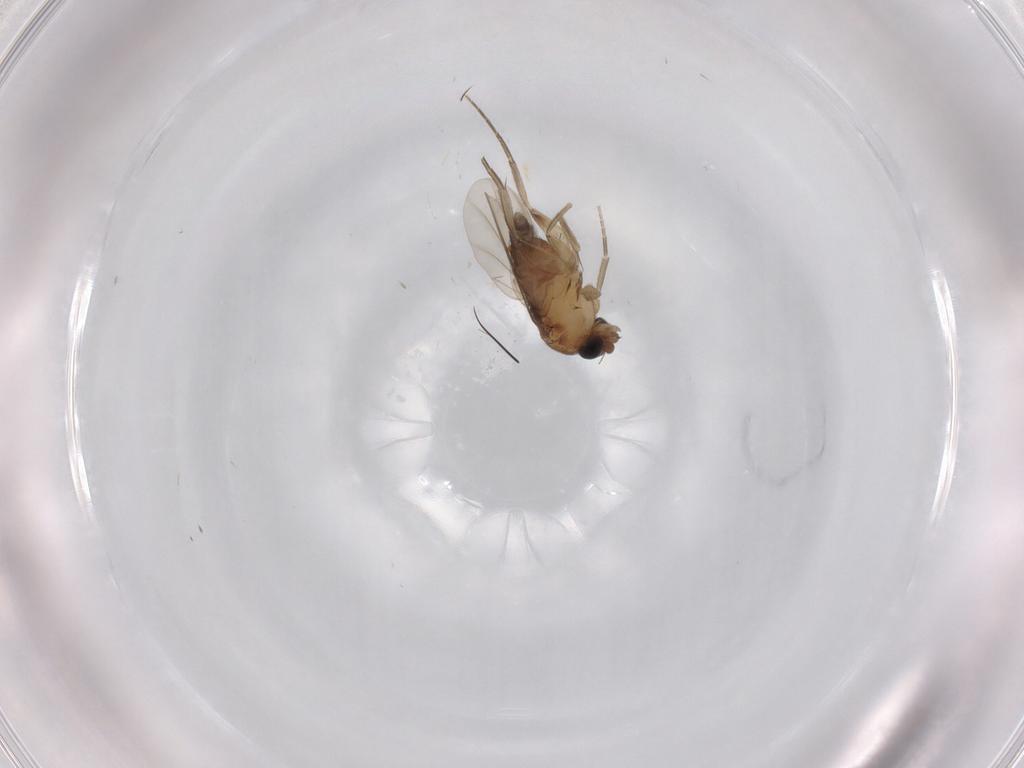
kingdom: Animalia
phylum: Arthropoda
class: Insecta
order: Diptera
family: Phoridae
